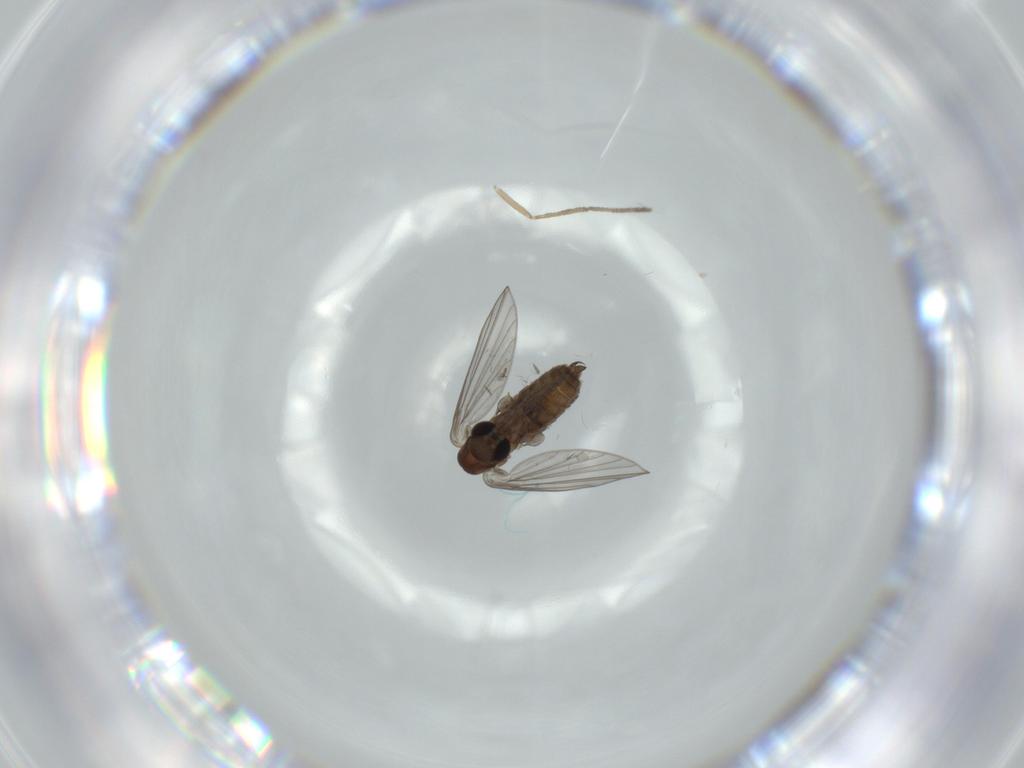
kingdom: Animalia
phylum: Arthropoda
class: Insecta
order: Diptera
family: Psychodidae
